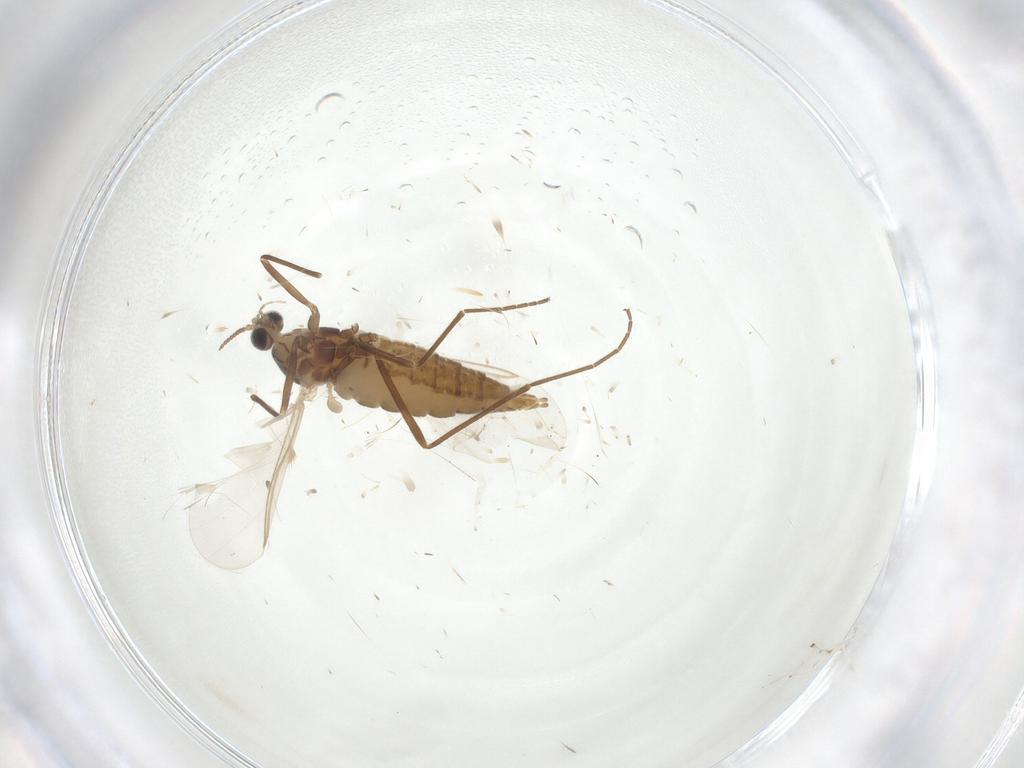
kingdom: Animalia
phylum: Arthropoda
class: Insecta
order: Diptera
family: Cecidomyiidae
